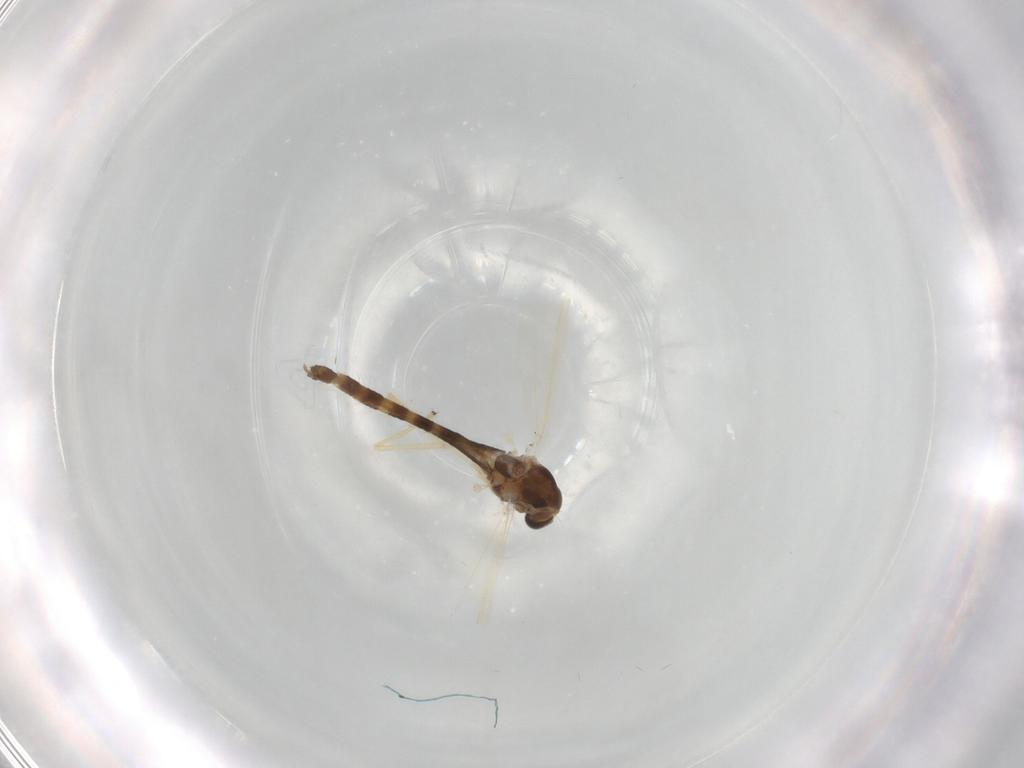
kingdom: Animalia
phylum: Arthropoda
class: Insecta
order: Diptera
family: Chironomidae
